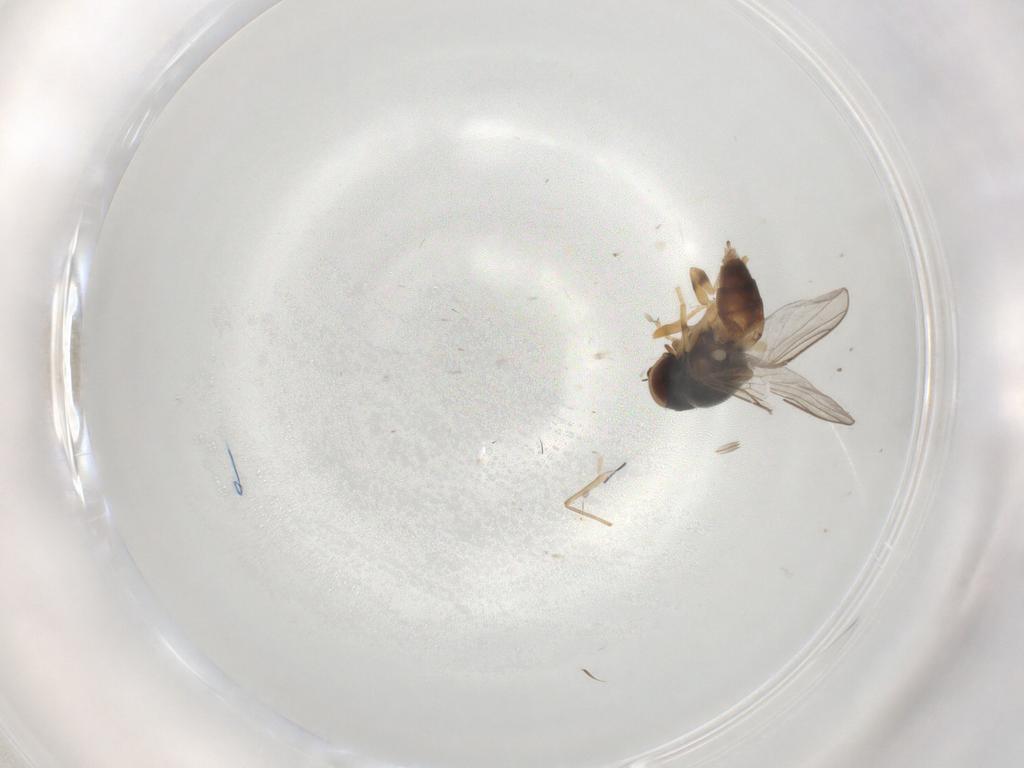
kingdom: Animalia
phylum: Arthropoda
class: Insecta
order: Diptera
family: Chloropidae
